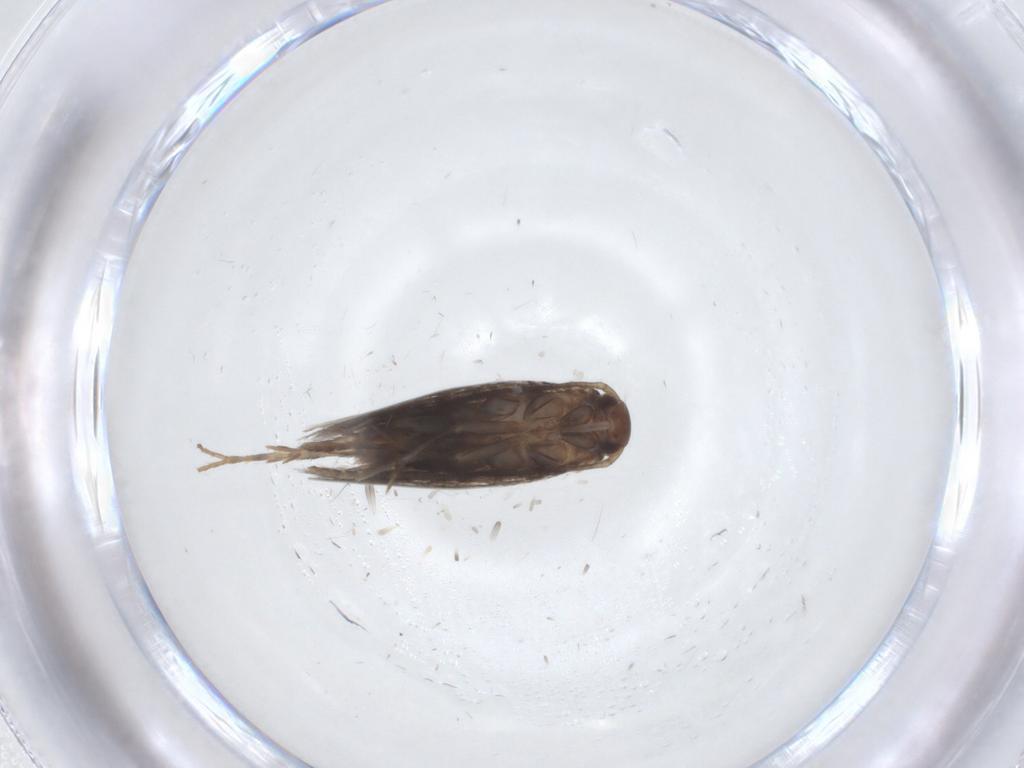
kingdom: Animalia
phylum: Arthropoda
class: Insecta
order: Lepidoptera
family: Elachistidae
